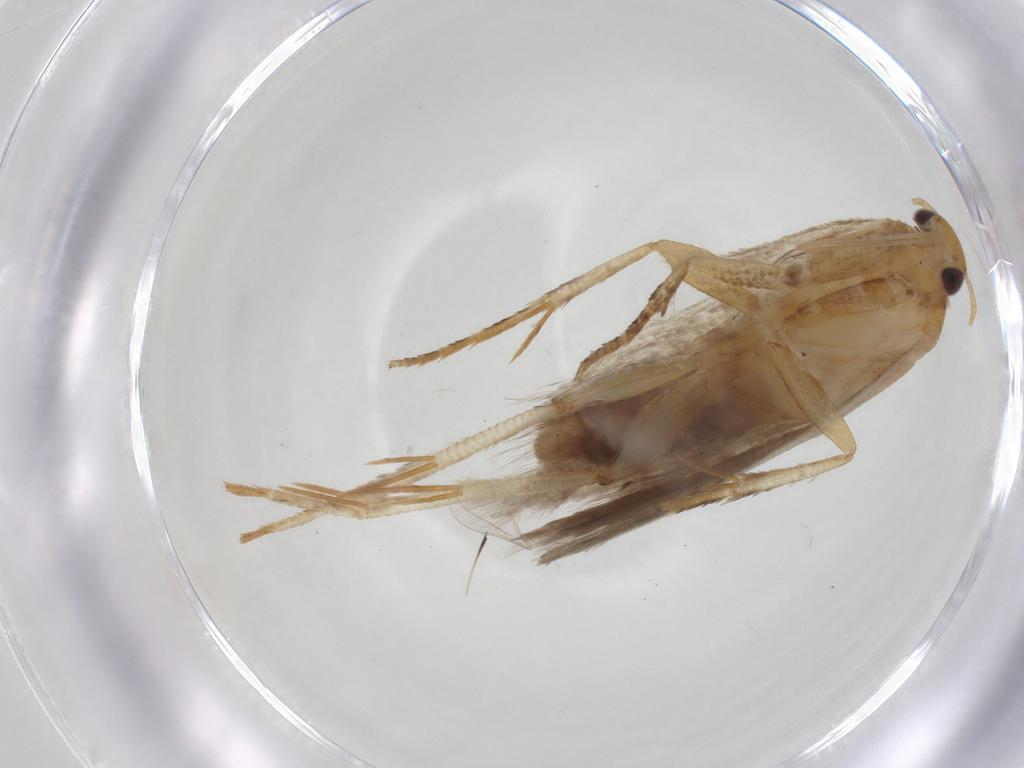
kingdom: Animalia
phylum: Arthropoda
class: Insecta
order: Lepidoptera
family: Gelechiidae
